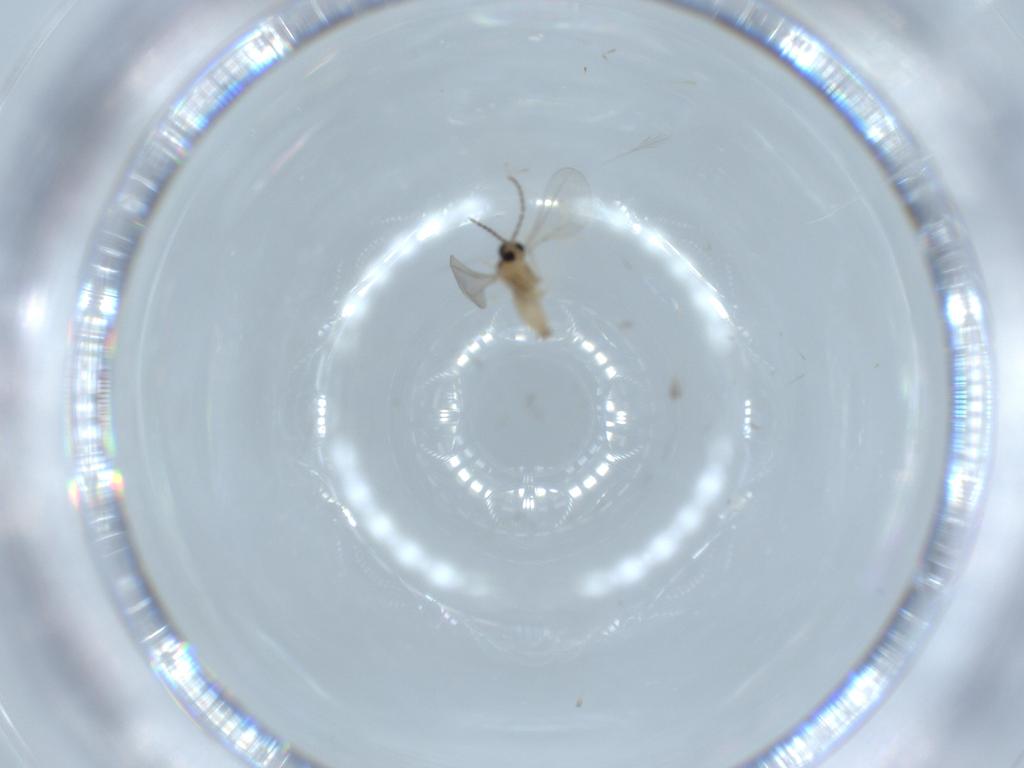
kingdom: Animalia
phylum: Arthropoda
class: Insecta
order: Diptera
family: Cecidomyiidae
